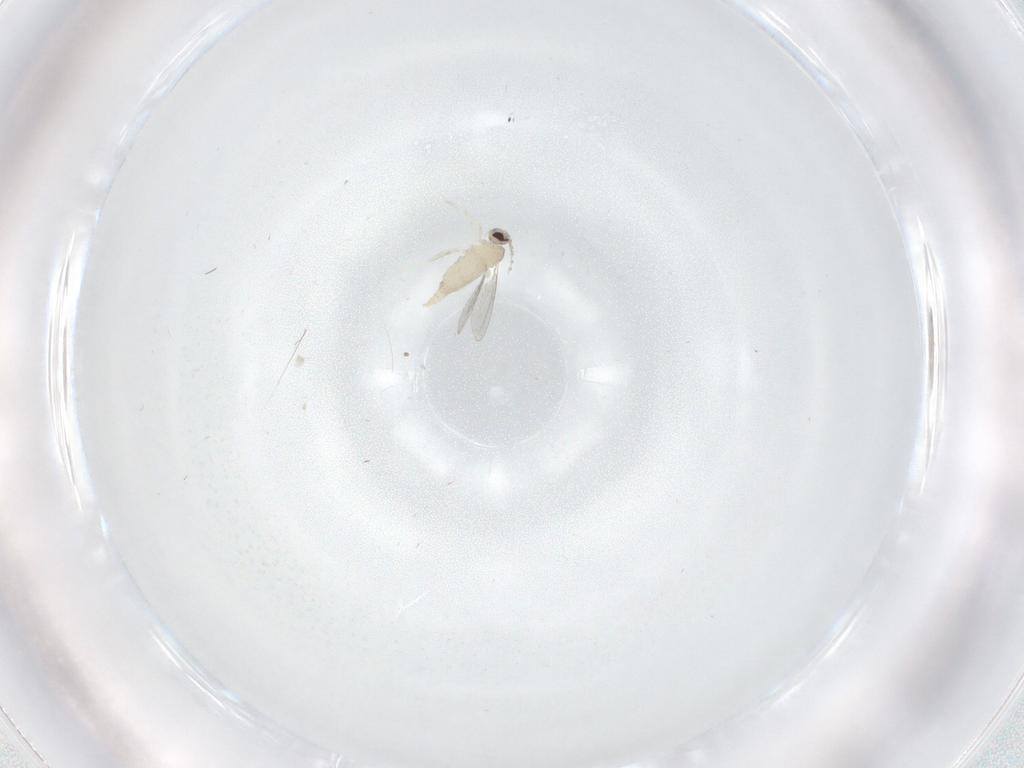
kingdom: Animalia
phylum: Arthropoda
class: Insecta
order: Diptera
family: Cecidomyiidae
